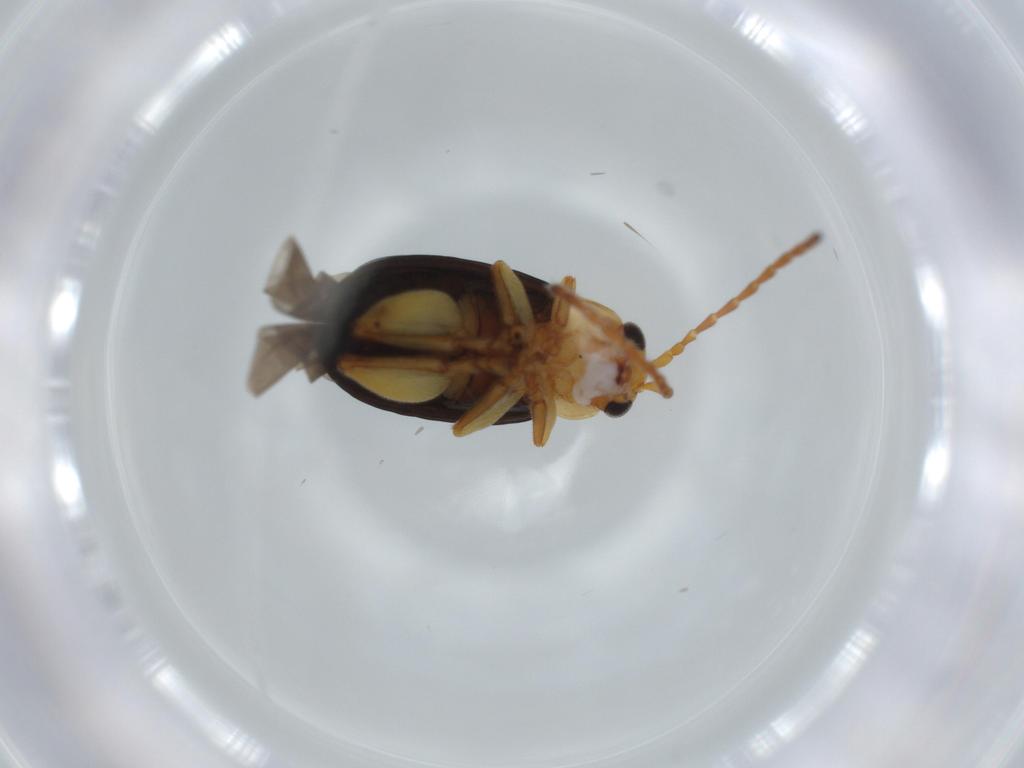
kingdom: Animalia
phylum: Arthropoda
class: Insecta
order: Coleoptera
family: Chrysomelidae
